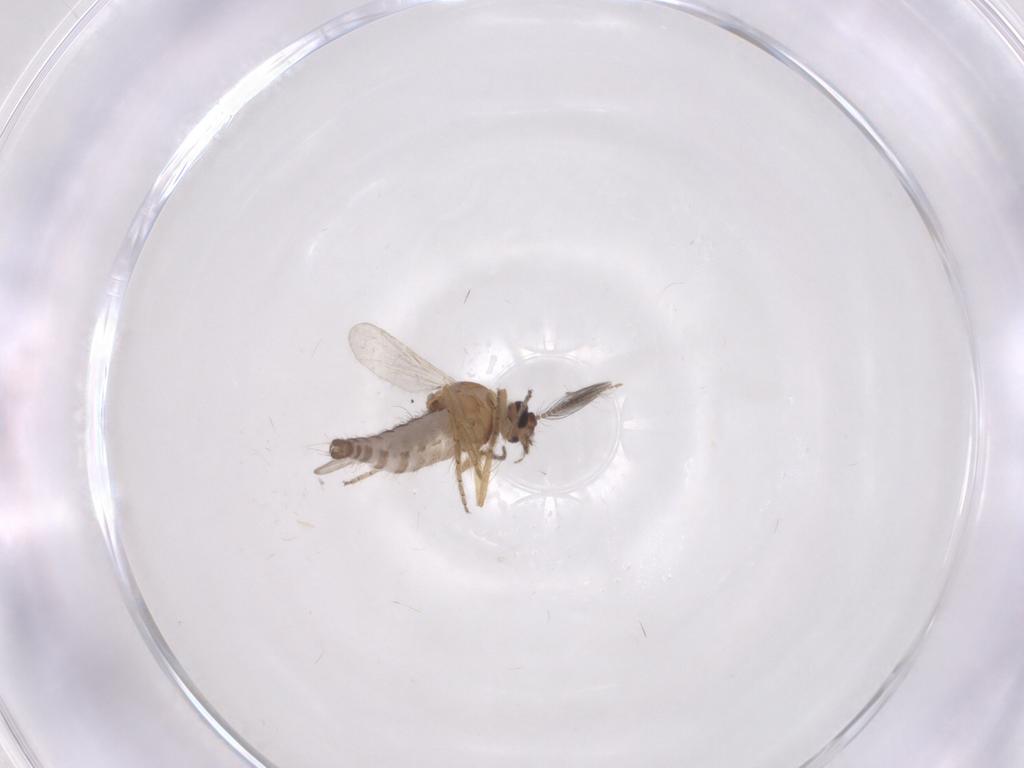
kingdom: Animalia
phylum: Arthropoda
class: Insecta
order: Diptera
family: Ceratopogonidae
